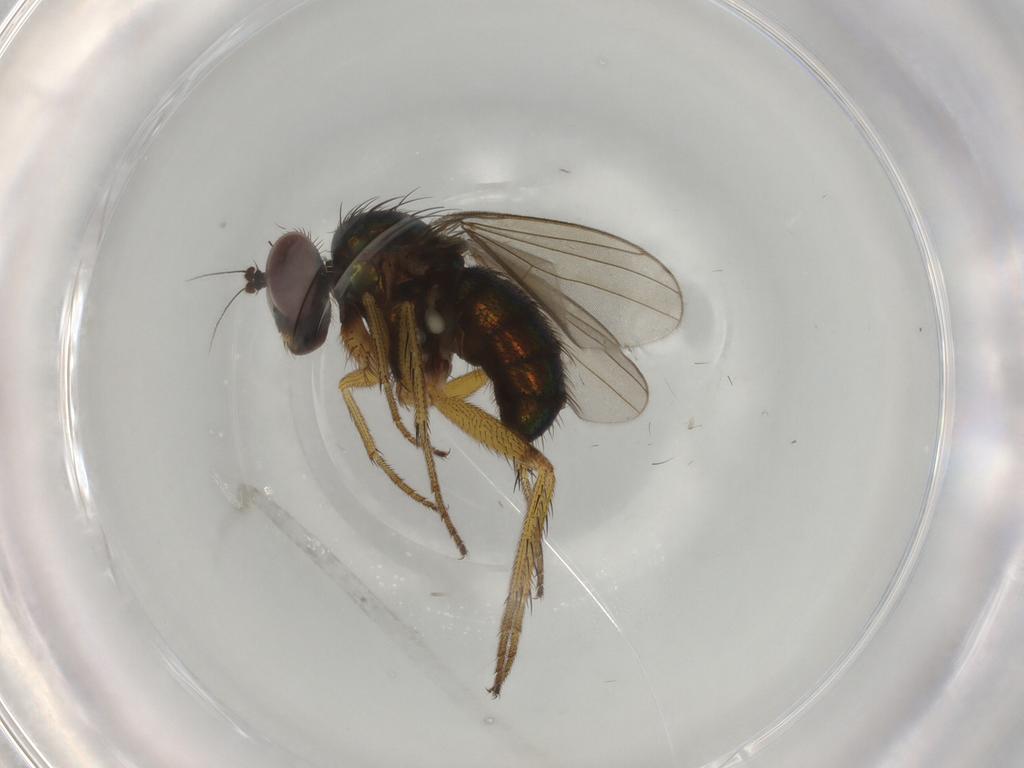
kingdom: Animalia
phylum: Arthropoda
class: Insecta
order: Diptera
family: Dolichopodidae
